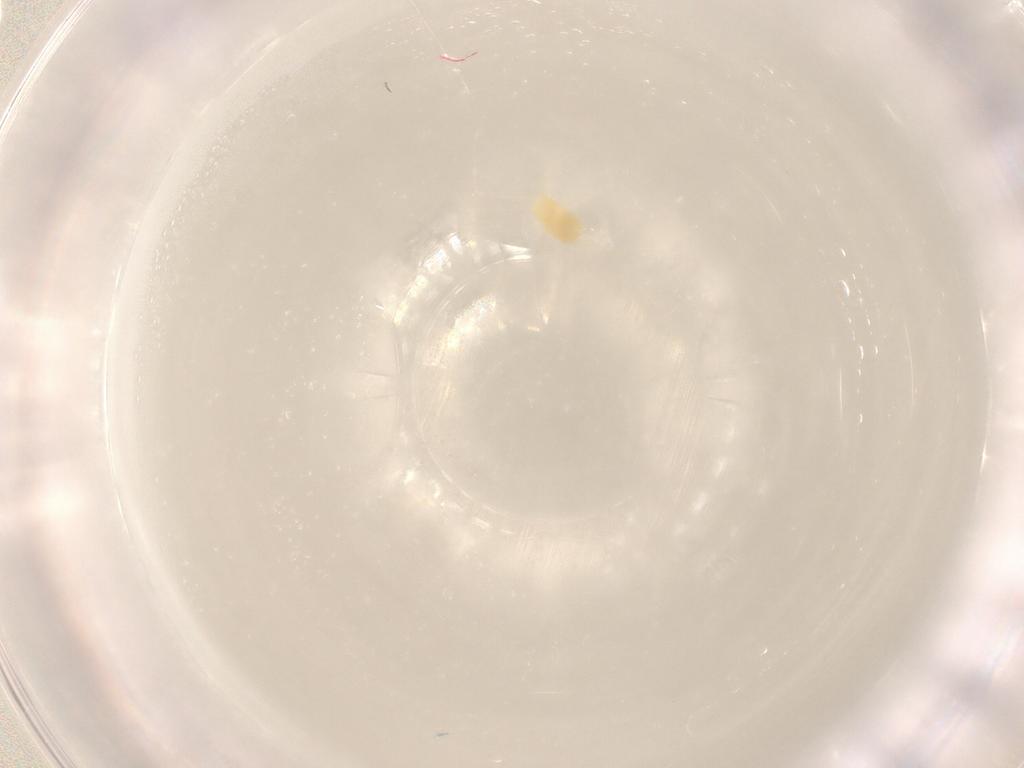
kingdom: Animalia
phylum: Arthropoda
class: Arachnida
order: Trombidiformes
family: Tetranychidae
